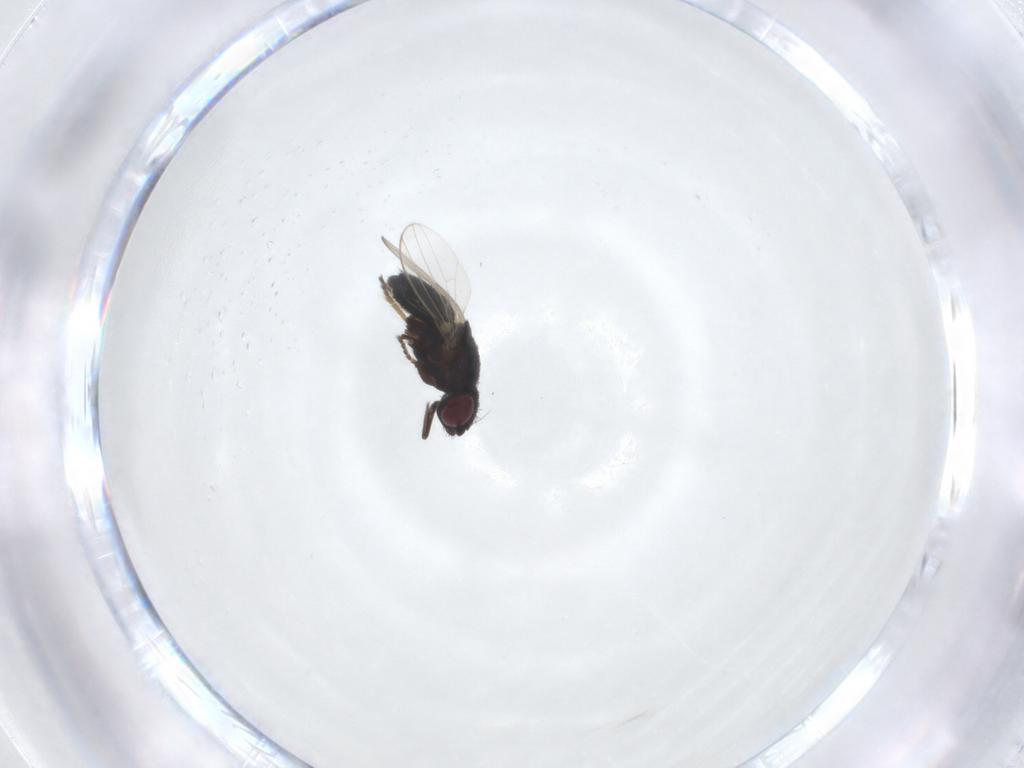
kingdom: Animalia
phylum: Arthropoda
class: Insecta
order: Diptera
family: Milichiidae
